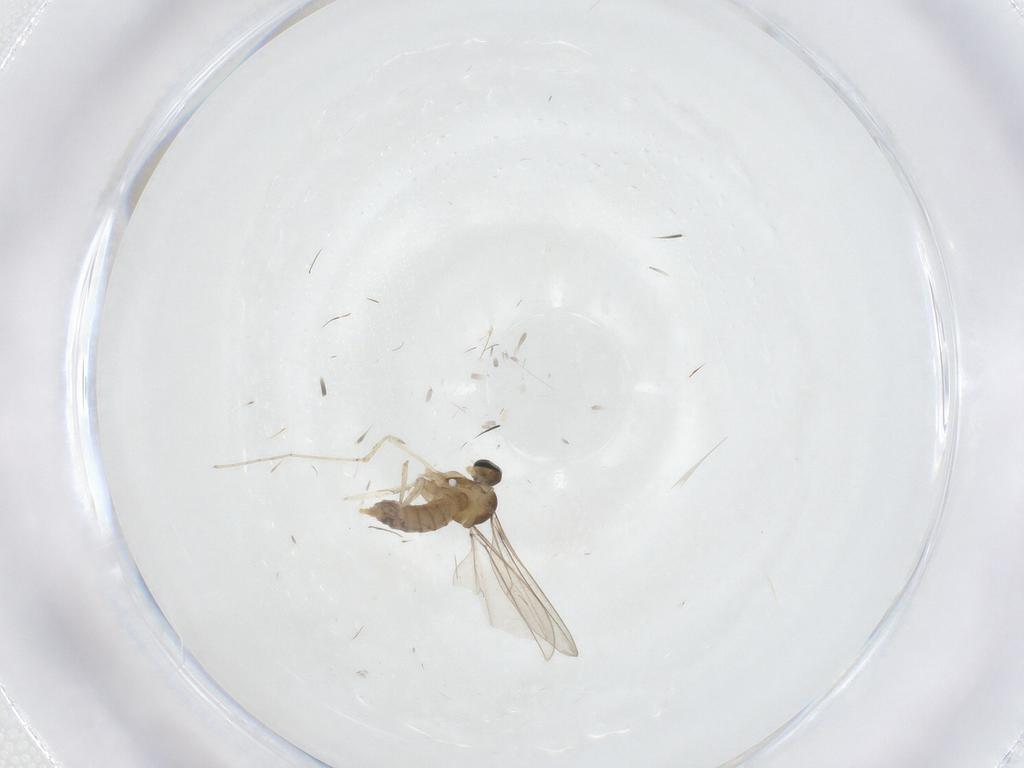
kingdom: Animalia
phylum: Arthropoda
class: Insecta
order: Diptera
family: Cecidomyiidae
